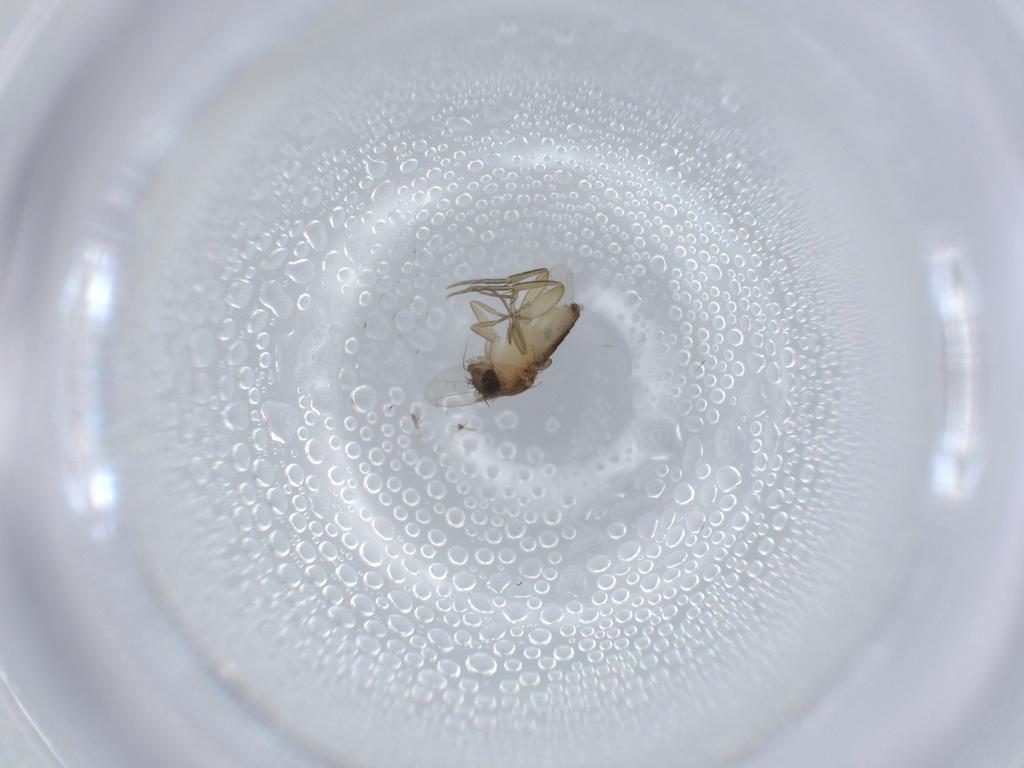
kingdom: Animalia
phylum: Arthropoda
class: Insecta
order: Diptera
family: Phoridae
